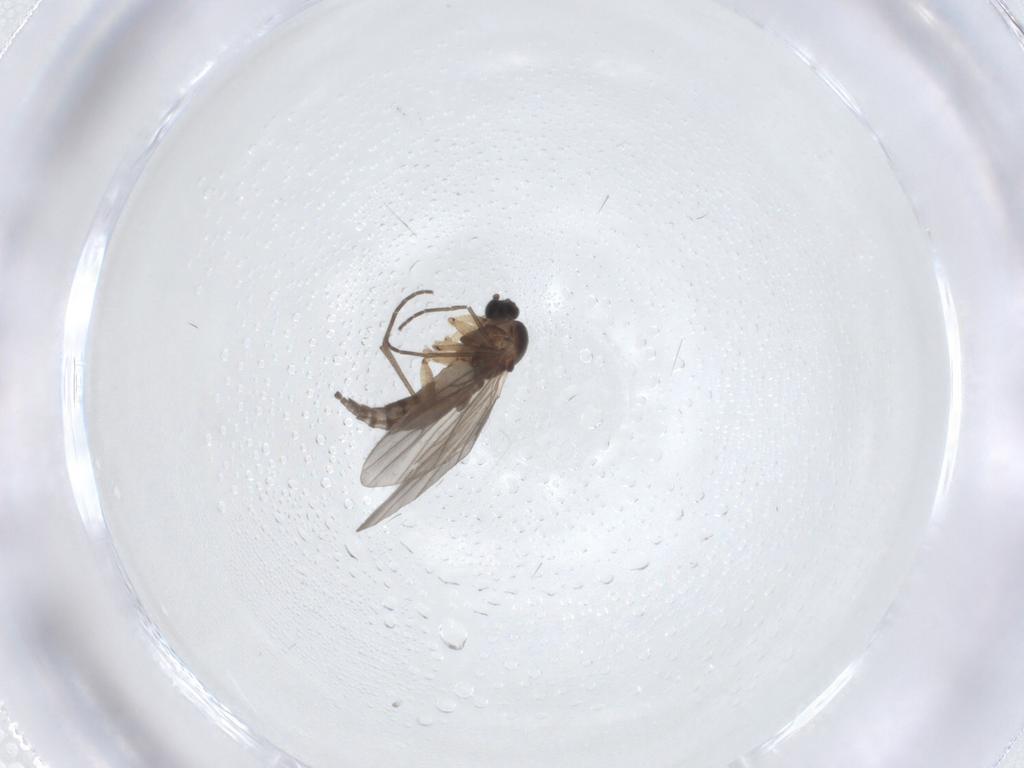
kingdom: Animalia
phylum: Arthropoda
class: Insecta
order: Diptera
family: Sciaridae
